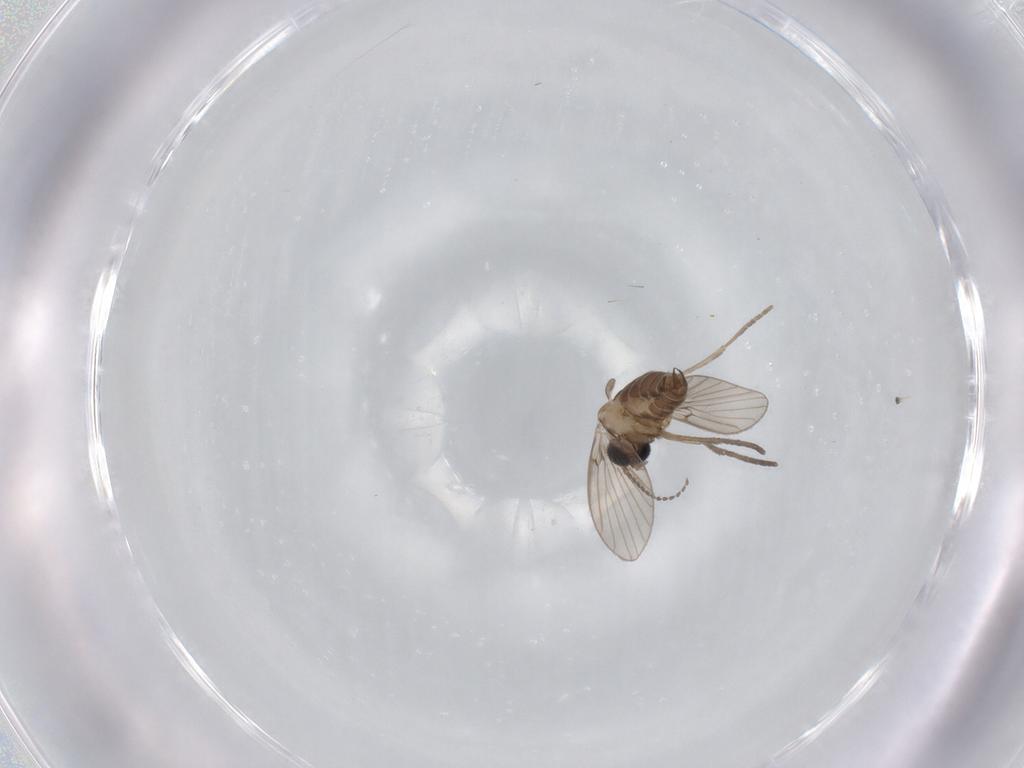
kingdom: Animalia
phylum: Arthropoda
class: Insecta
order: Diptera
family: Psychodidae
